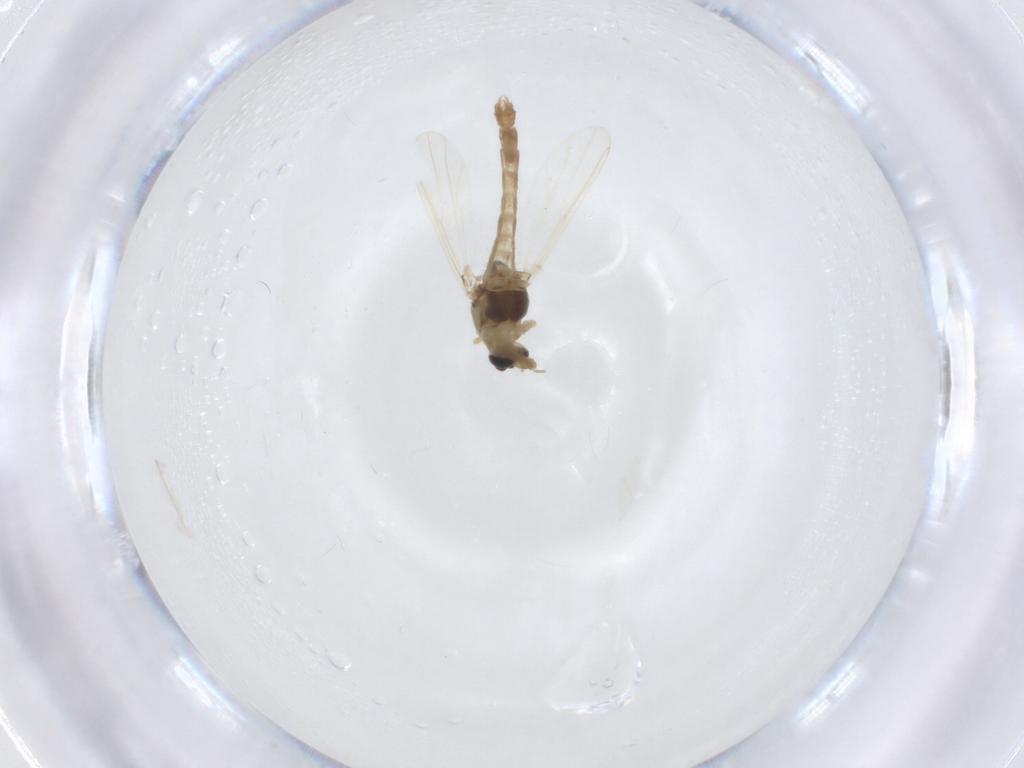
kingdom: Animalia
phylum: Arthropoda
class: Insecta
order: Diptera
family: Chironomidae
